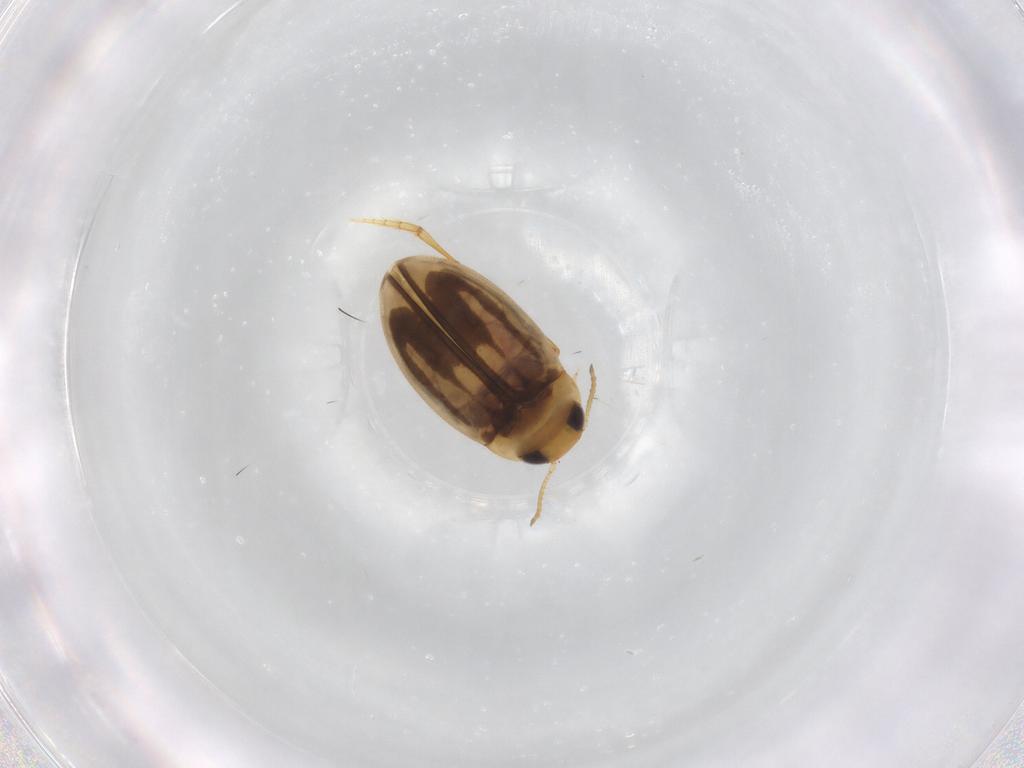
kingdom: Animalia
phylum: Arthropoda
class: Insecta
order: Coleoptera
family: Dytiscidae
